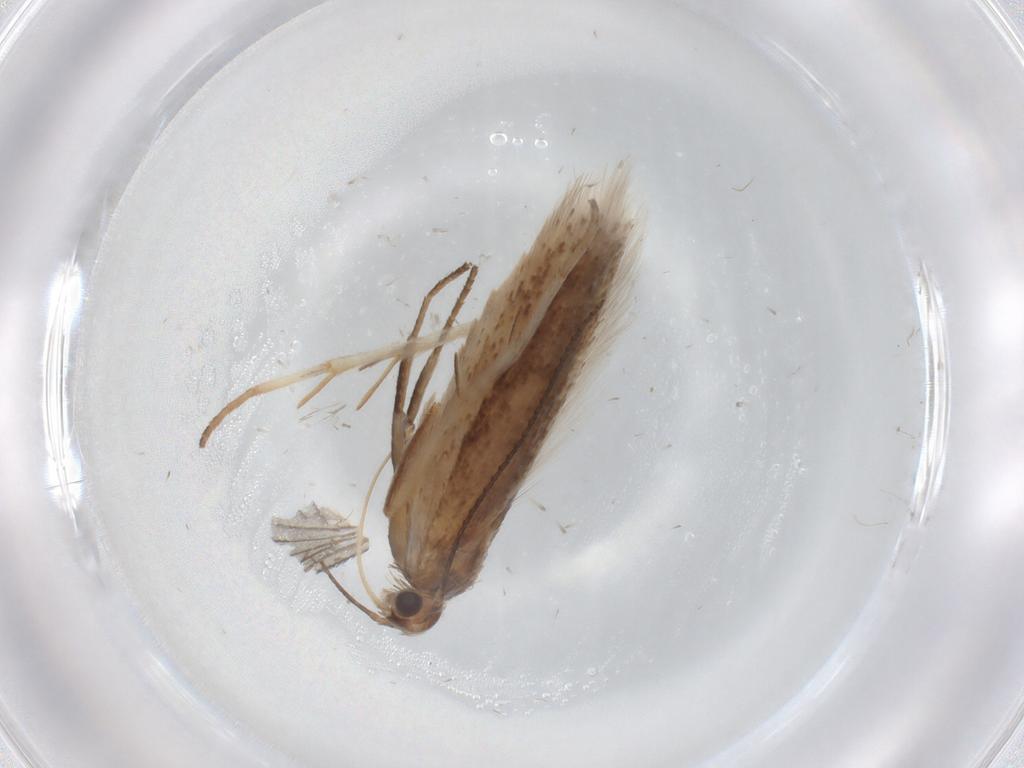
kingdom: Animalia
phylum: Arthropoda
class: Insecta
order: Lepidoptera
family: Gelechiidae
